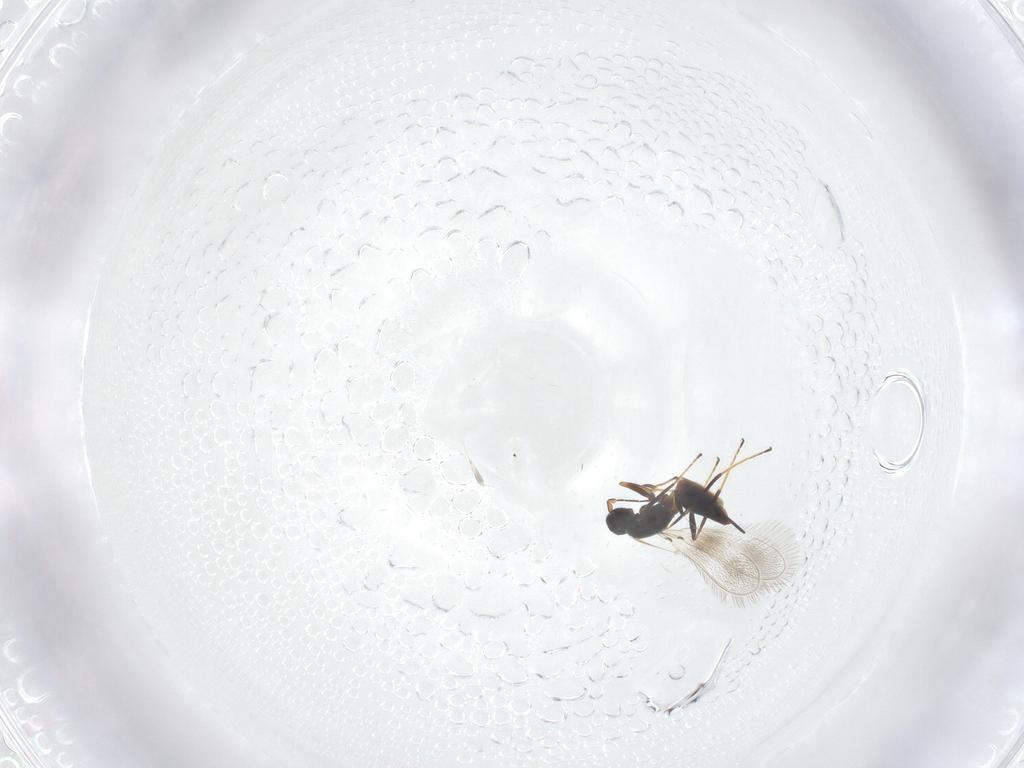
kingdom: Animalia
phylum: Arthropoda
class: Insecta
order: Hymenoptera
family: Mymaridae
